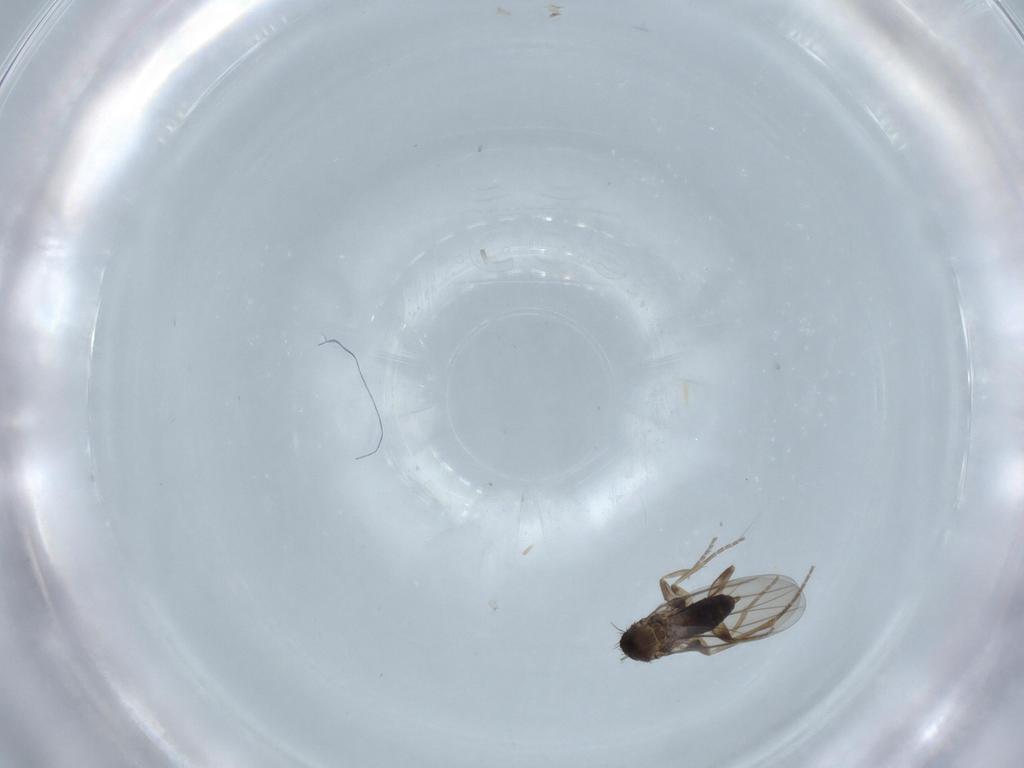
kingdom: Animalia
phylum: Arthropoda
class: Insecta
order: Diptera
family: Phoridae
